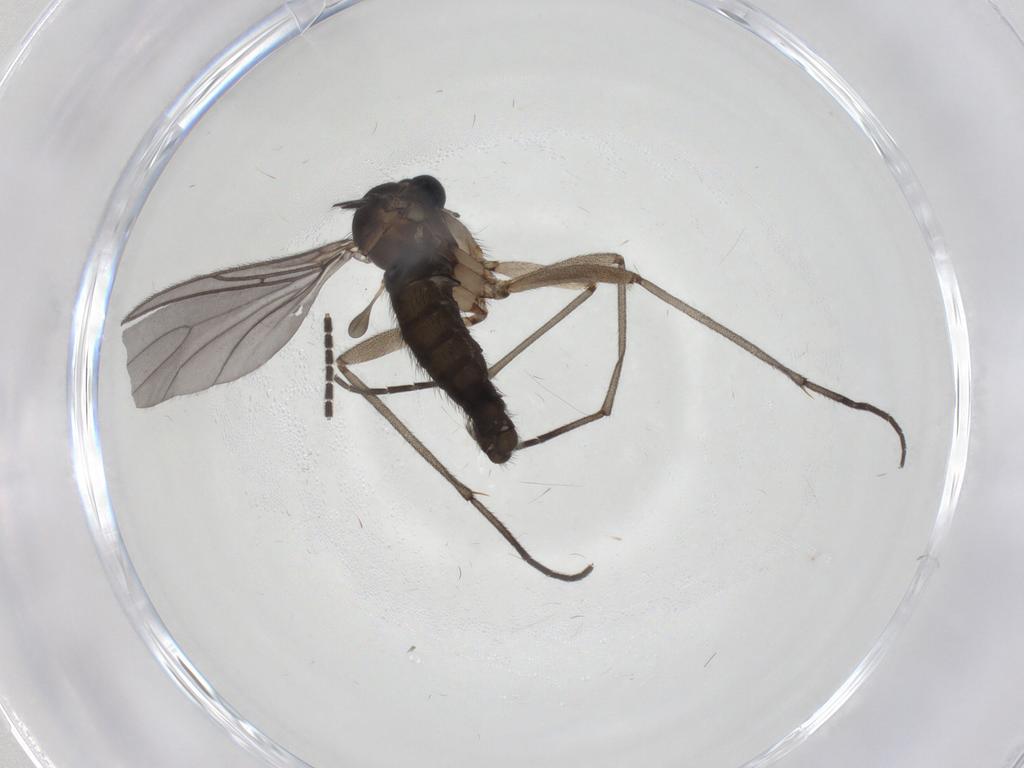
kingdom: Animalia
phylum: Arthropoda
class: Insecta
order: Diptera
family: Sciaridae
